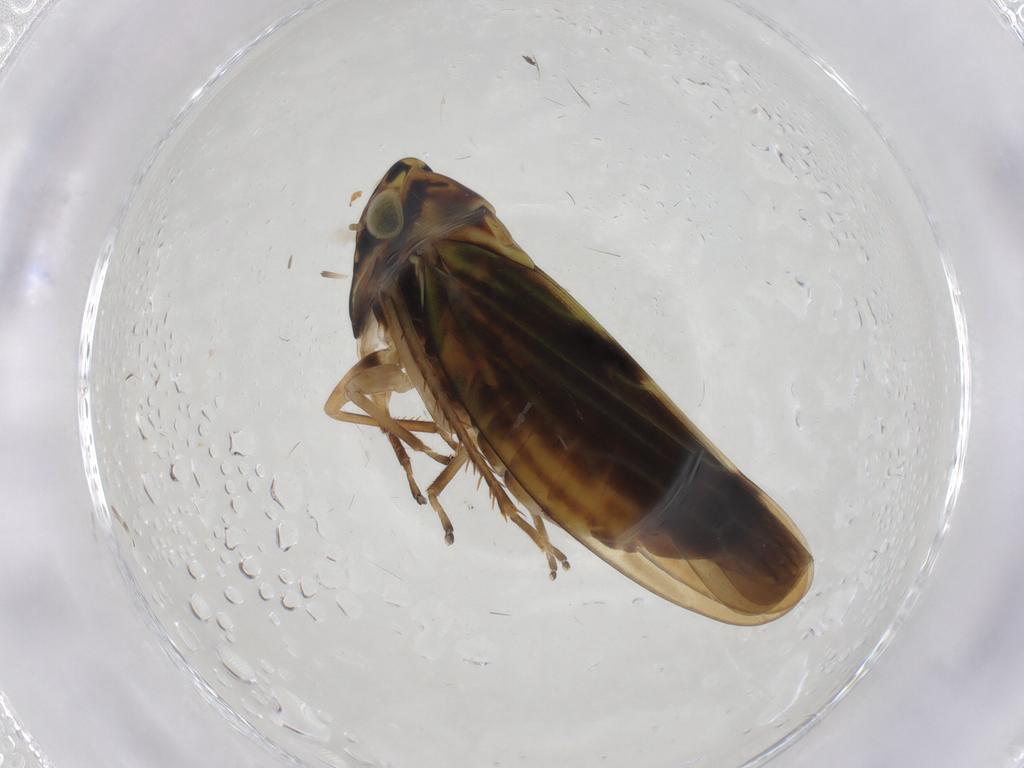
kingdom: Animalia
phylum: Arthropoda
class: Insecta
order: Hemiptera
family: Cicadellidae
